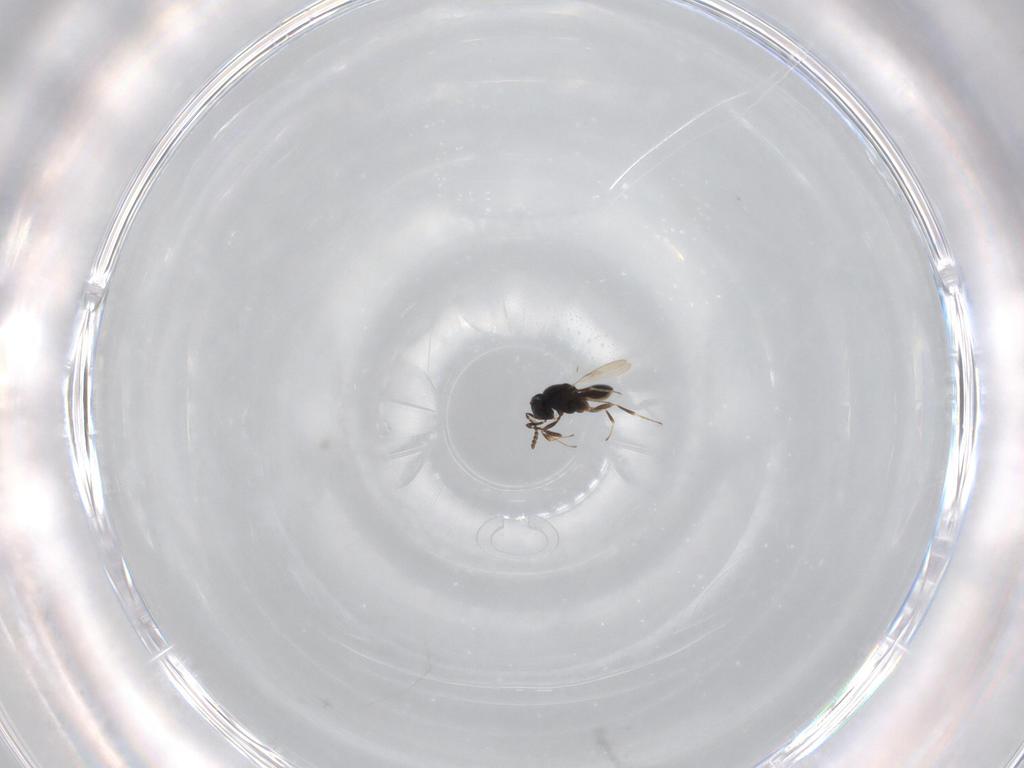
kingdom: Animalia
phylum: Arthropoda
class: Insecta
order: Hymenoptera
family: Scelionidae
